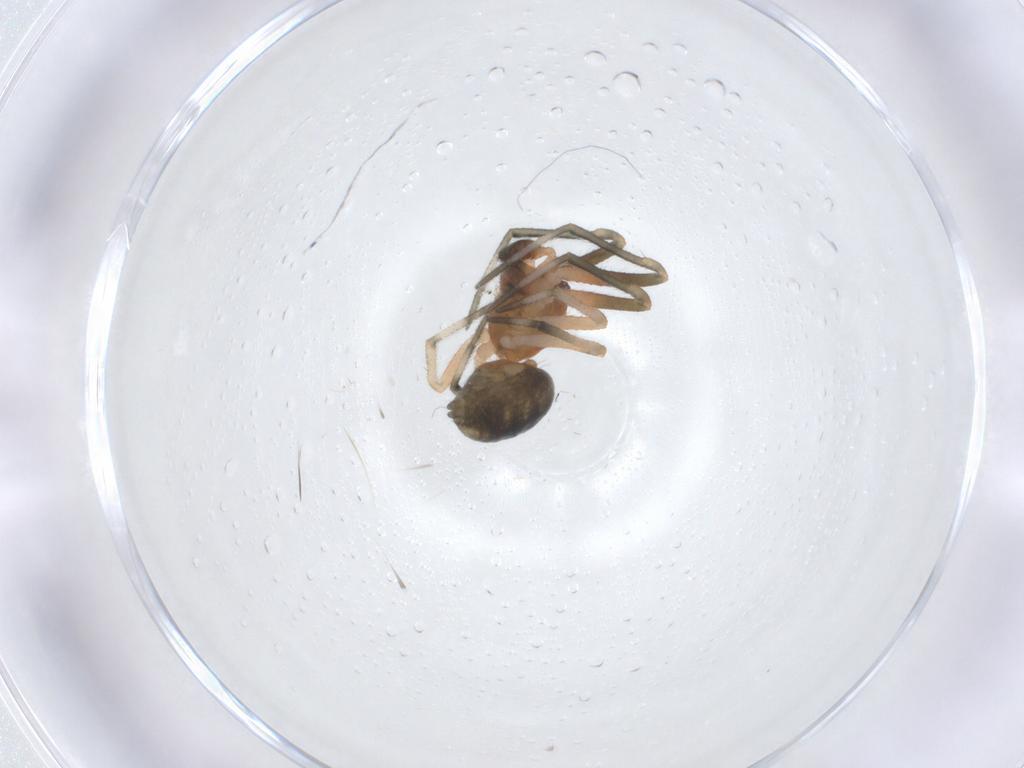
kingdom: Animalia
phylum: Arthropoda
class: Arachnida
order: Araneae
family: Theridiidae
